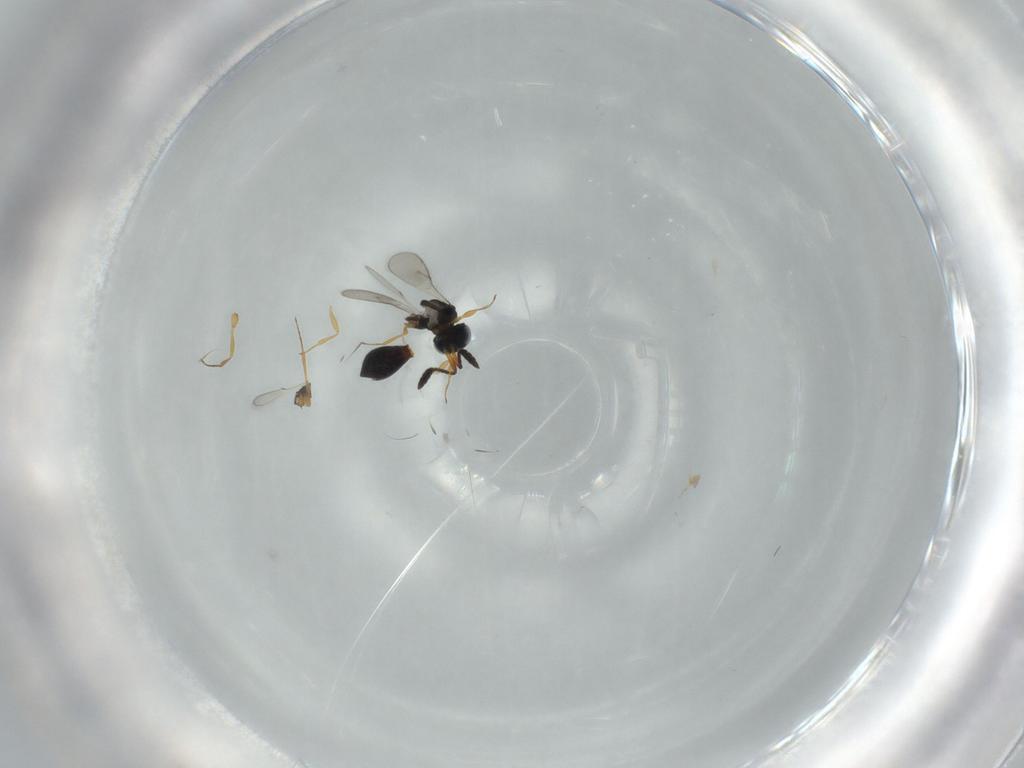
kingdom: Animalia
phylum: Arthropoda
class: Insecta
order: Hymenoptera
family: Scelionidae
